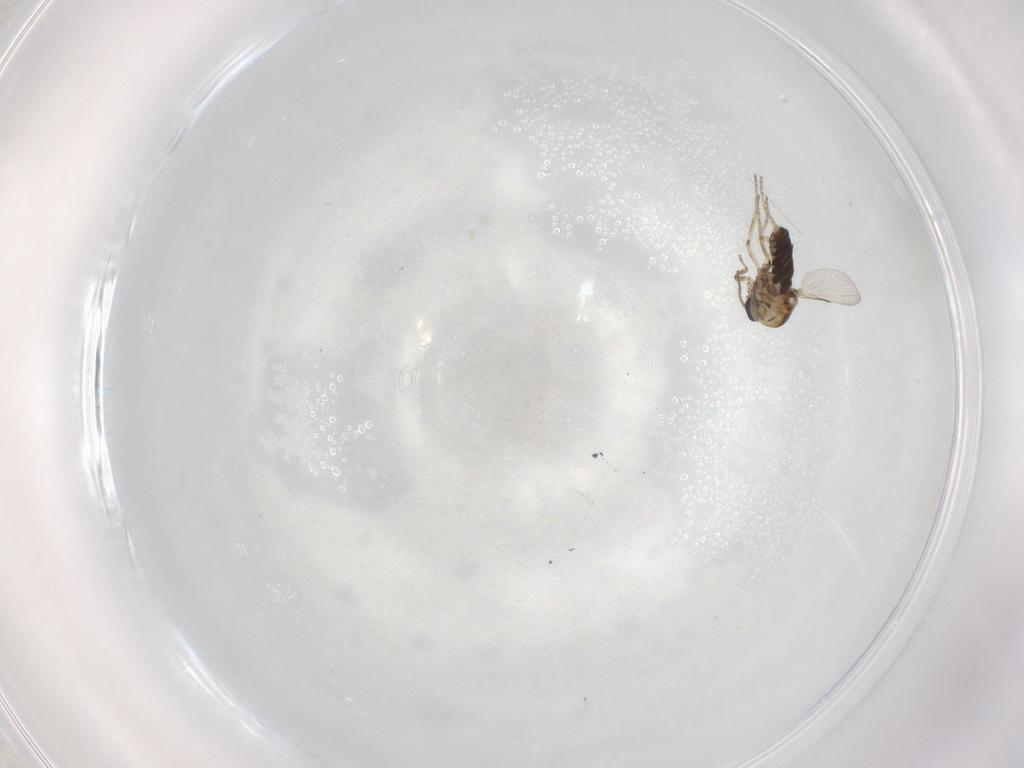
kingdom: Animalia
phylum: Arthropoda
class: Insecta
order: Diptera
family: Ceratopogonidae
